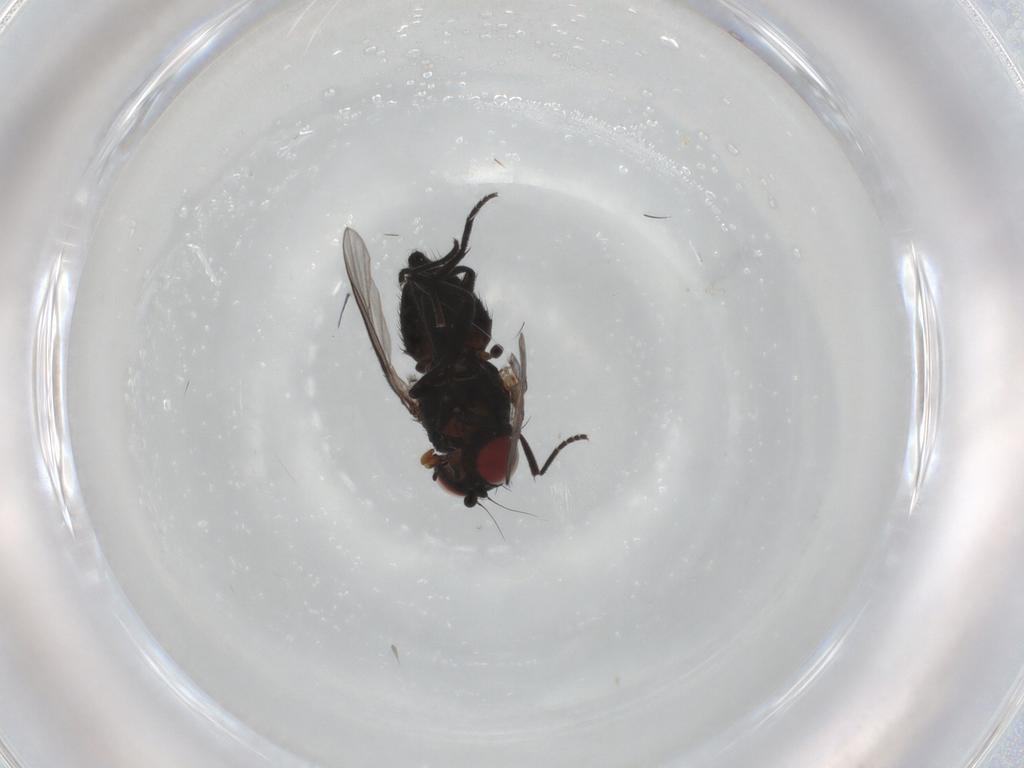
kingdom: Animalia
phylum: Arthropoda
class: Insecta
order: Diptera
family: Agromyzidae
